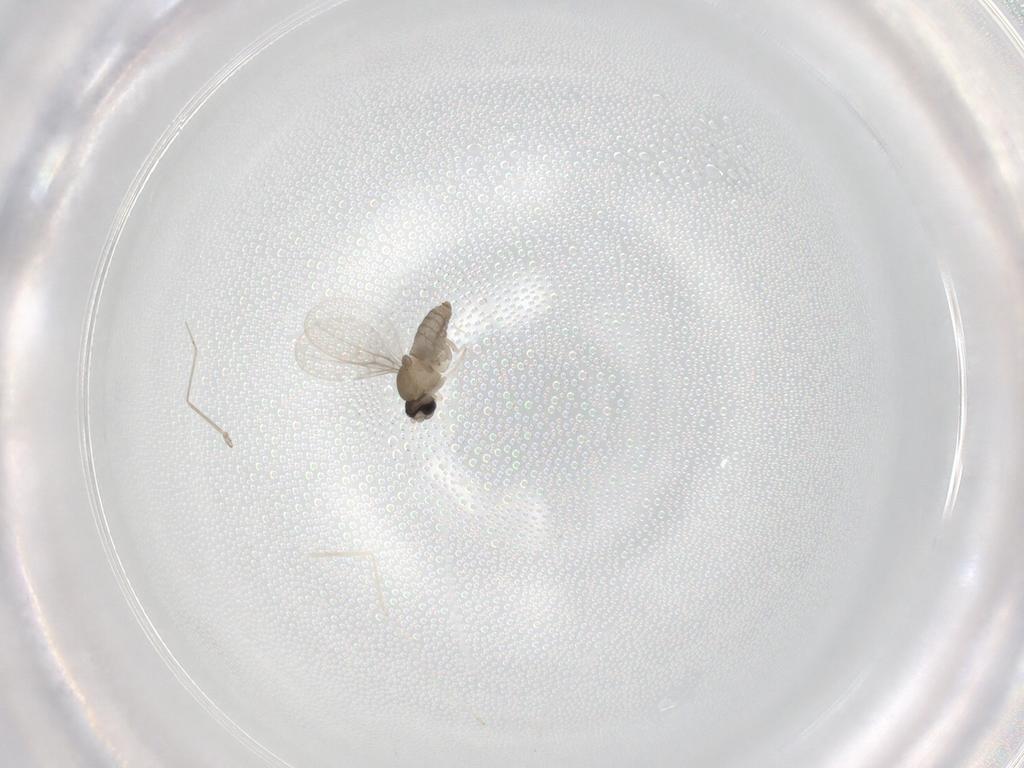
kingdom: Animalia
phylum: Arthropoda
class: Insecta
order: Diptera
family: Cecidomyiidae
